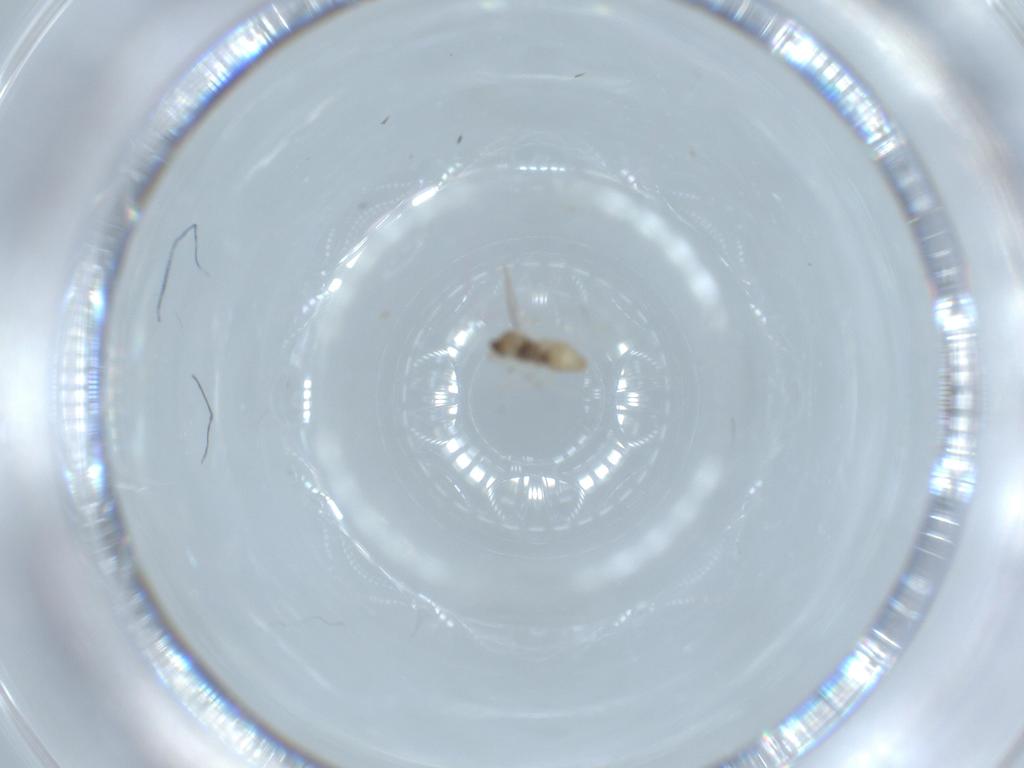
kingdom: Animalia
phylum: Arthropoda
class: Insecta
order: Diptera
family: Cecidomyiidae
